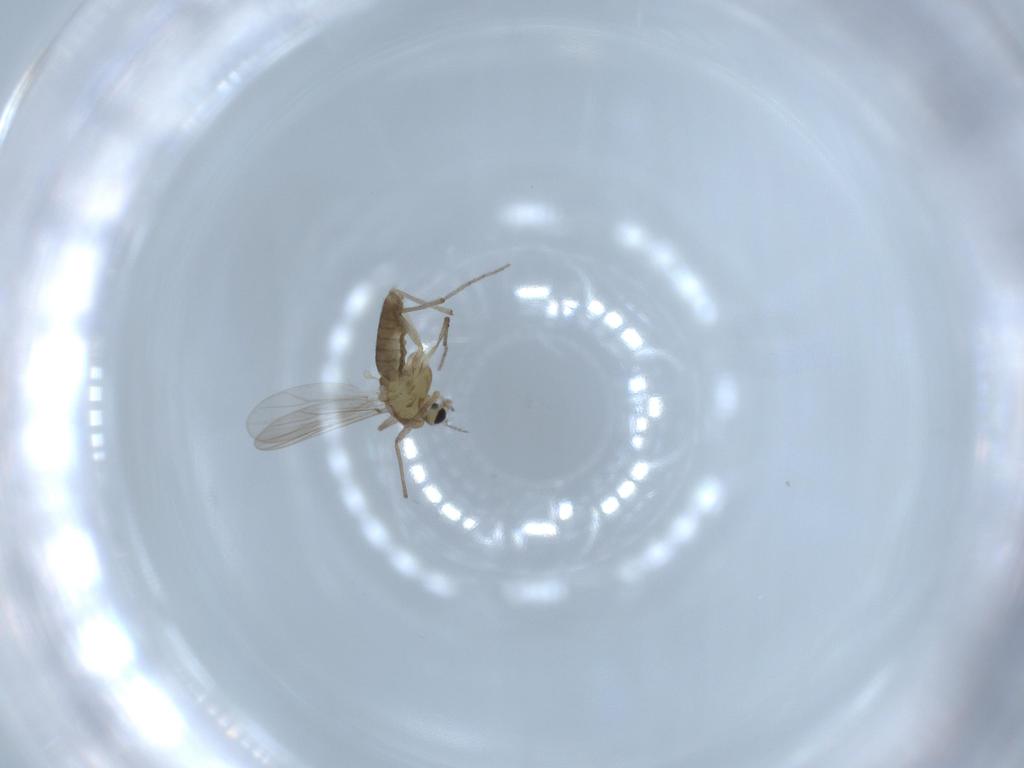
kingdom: Animalia
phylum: Arthropoda
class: Insecta
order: Diptera
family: Chironomidae
